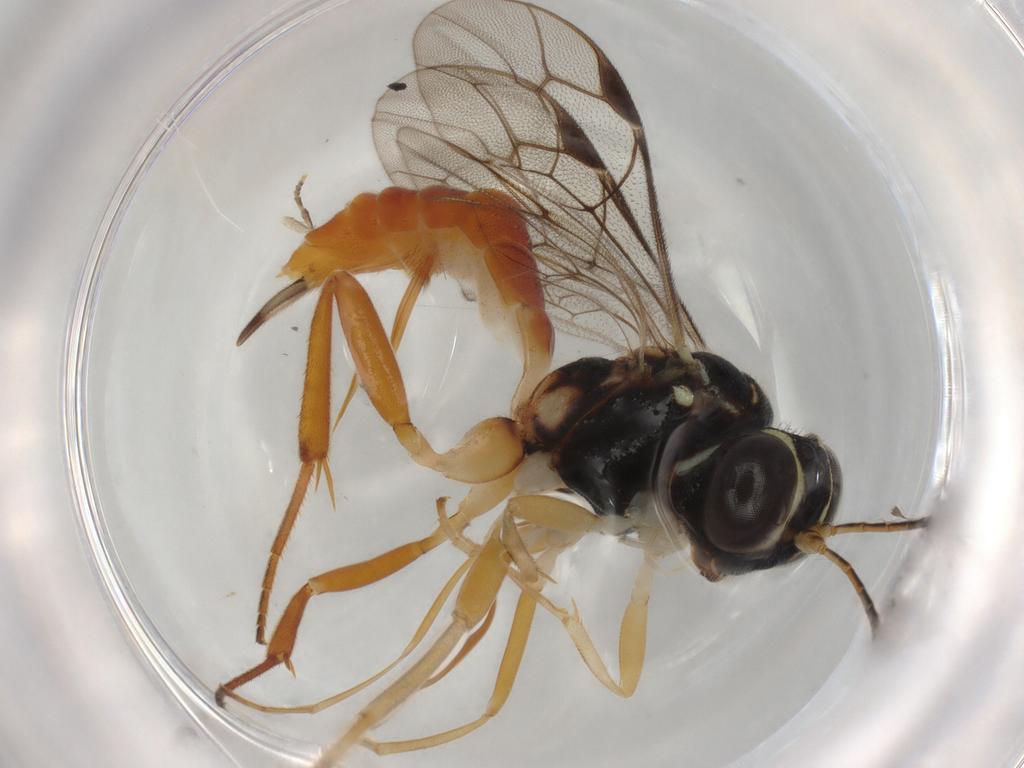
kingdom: Animalia
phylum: Arthropoda
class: Insecta
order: Hymenoptera
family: Ichneumonidae
